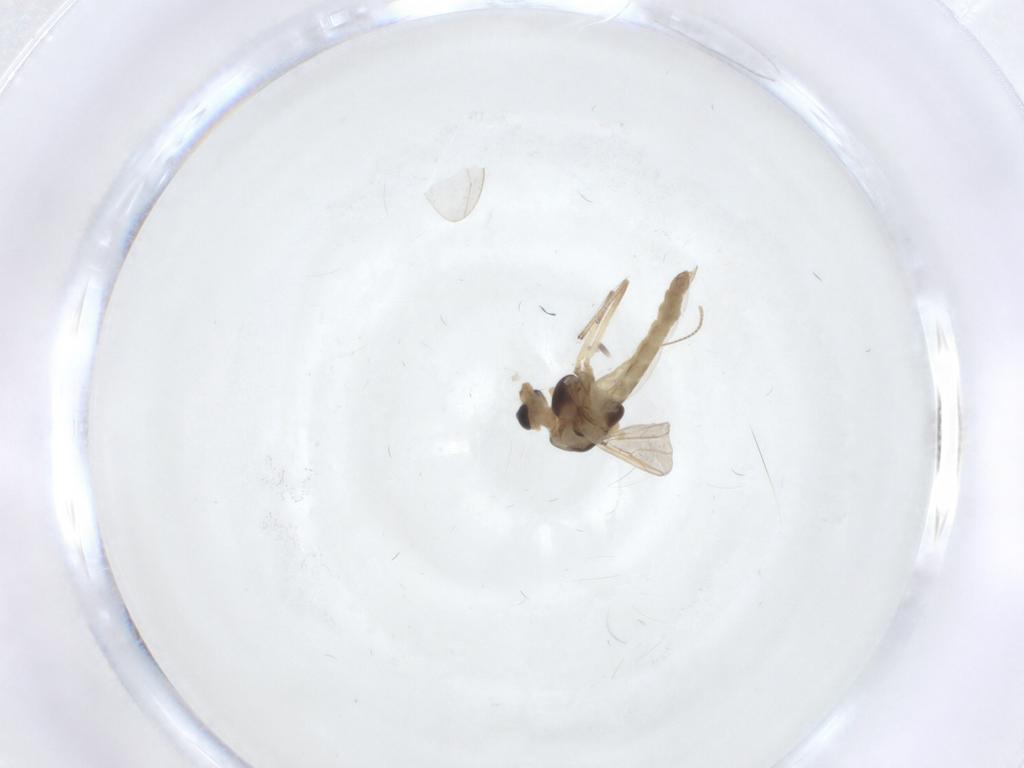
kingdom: Animalia
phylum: Arthropoda
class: Insecta
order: Diptera
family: Chironomidae
